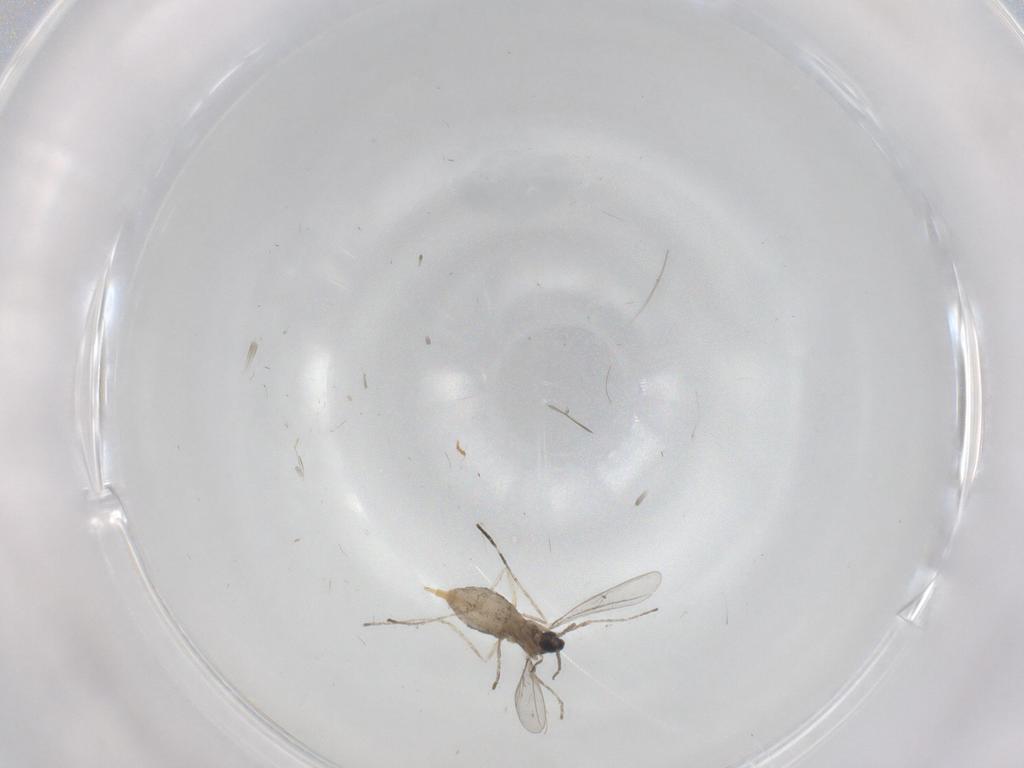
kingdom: Animalia
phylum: Arthropoda
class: Insecta
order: Diptera
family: Cecidomyiidae
